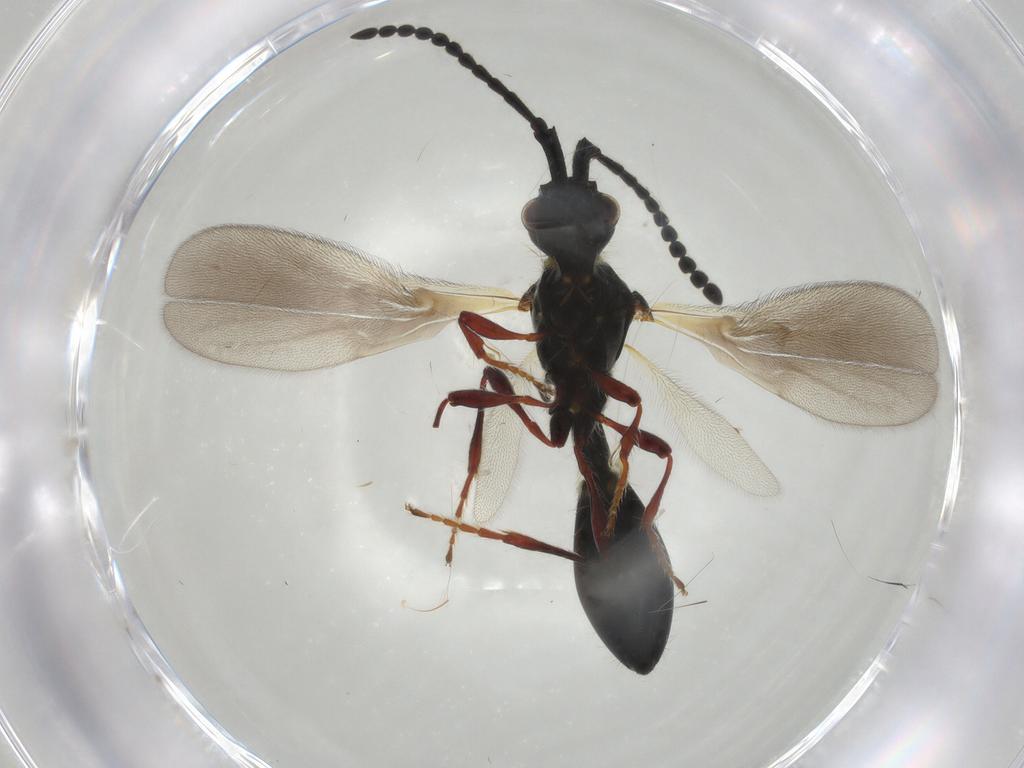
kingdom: Animalia
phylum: Arthropoda
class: Insecta
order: Hymenoptera
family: Diapriidae
